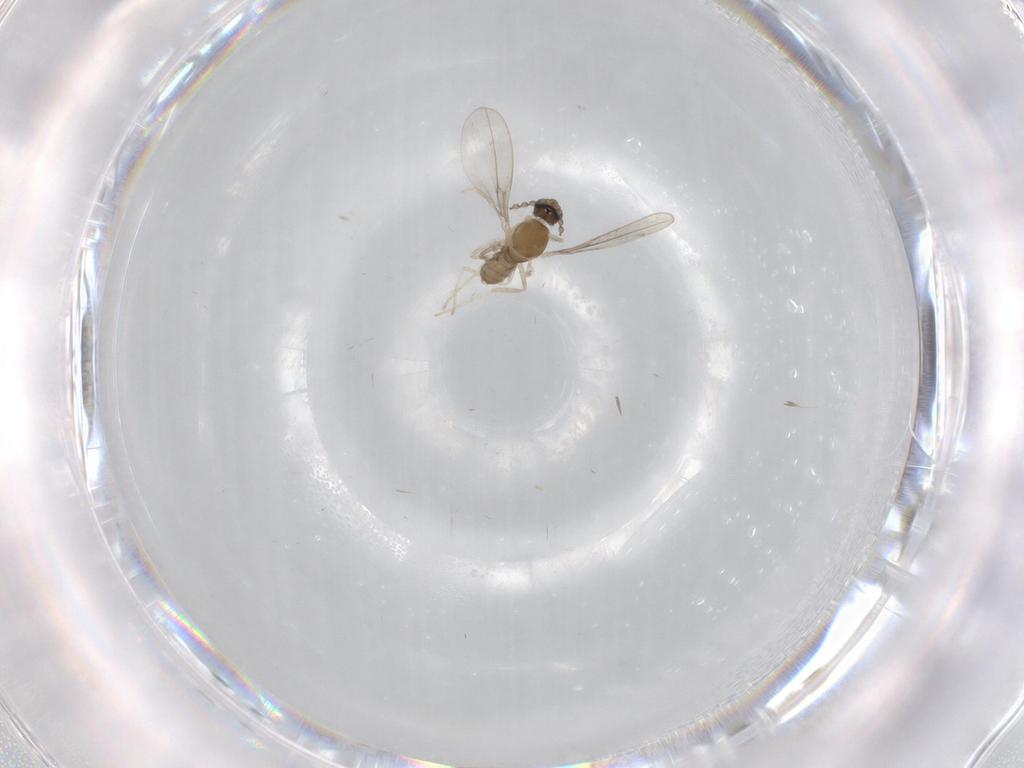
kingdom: Animalia
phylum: Arthropoda
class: Insecta
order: Diptera
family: Cecidomyiidae
